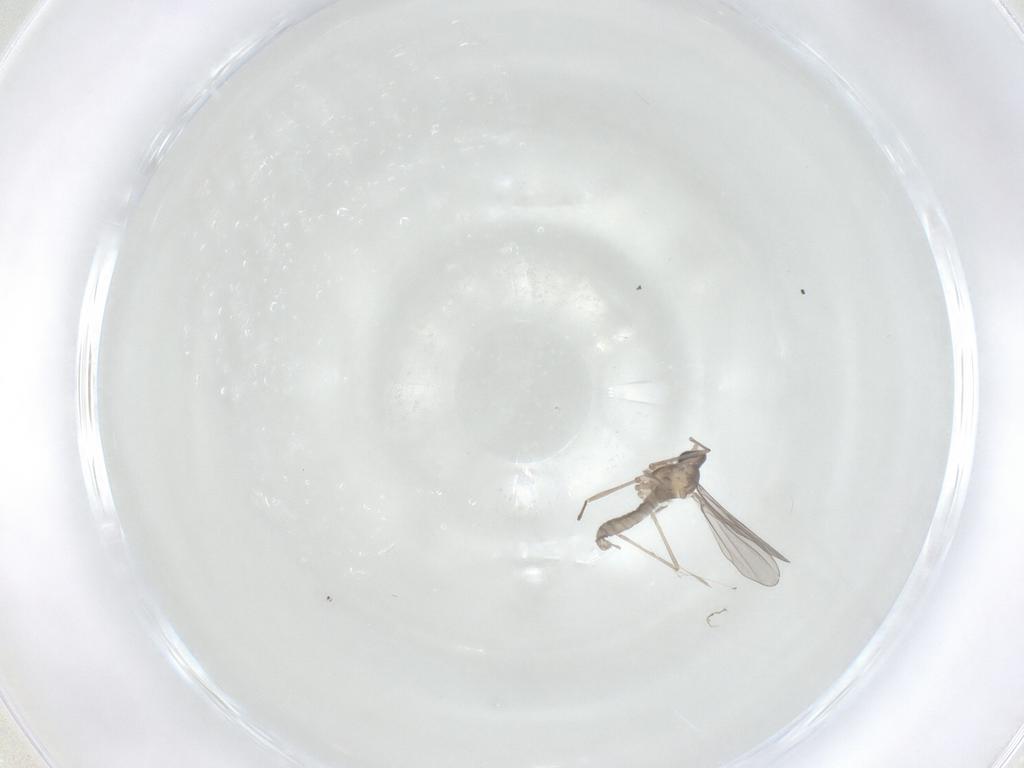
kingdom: Animalia
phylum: Arthropoda
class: Insecta
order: Diptera
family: Cecidomyiidae
